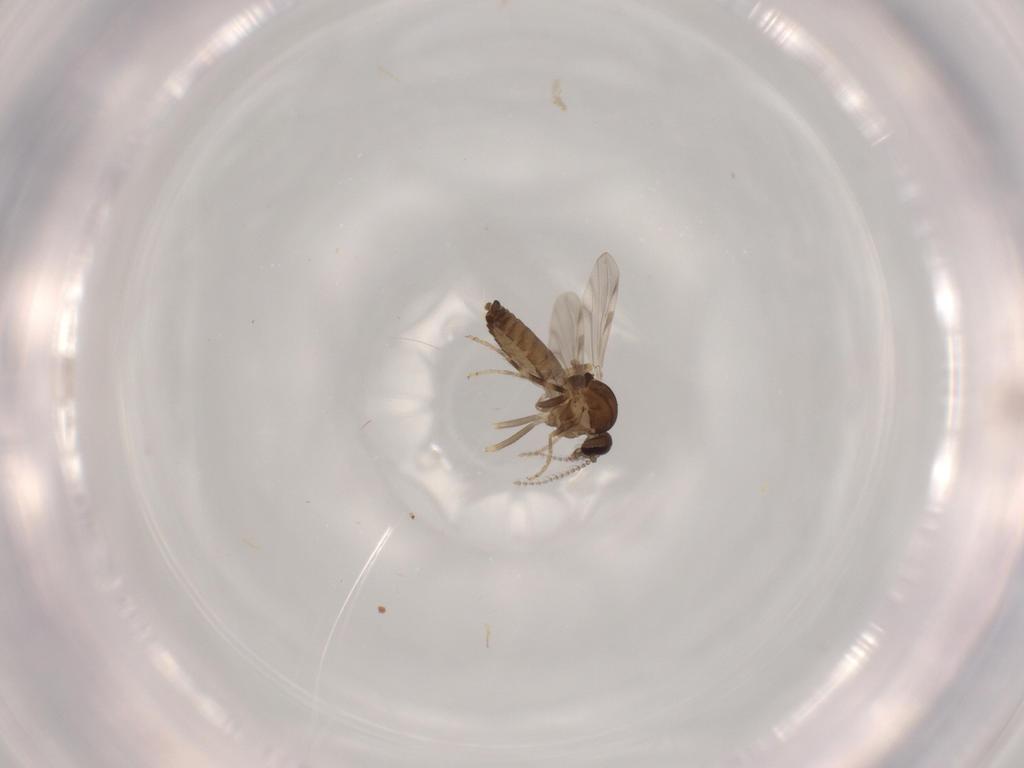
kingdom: Animalia
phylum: Arthropoda
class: Insecta
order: Diptera
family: Ceratopogonidae
